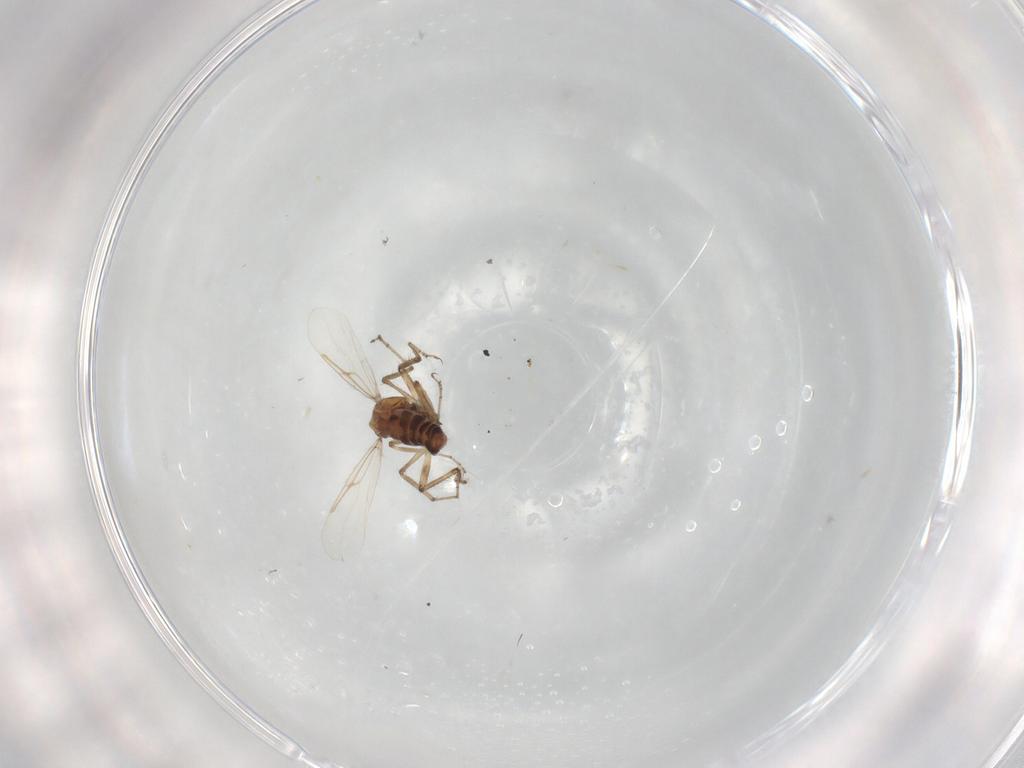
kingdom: Animalia
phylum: Arthropoda
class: Insecta
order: Diptera
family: Ceratopogonidae
